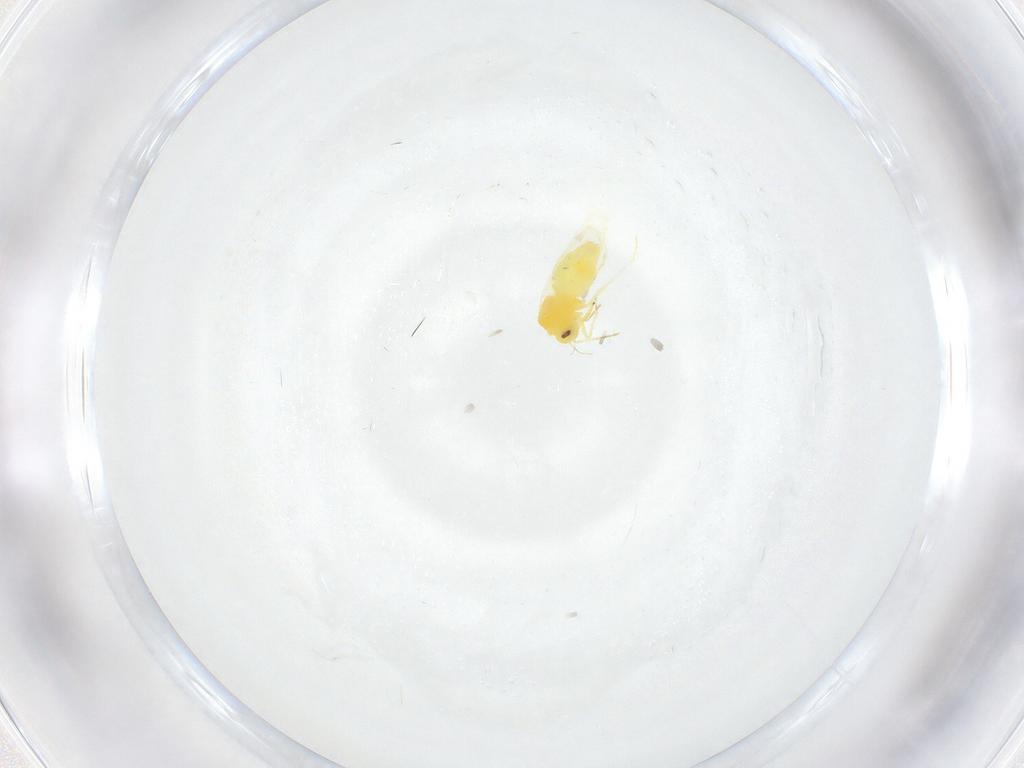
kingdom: Animalia
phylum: Arthropoda
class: Insecta
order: Hemiptera
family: Aleyrodidae
